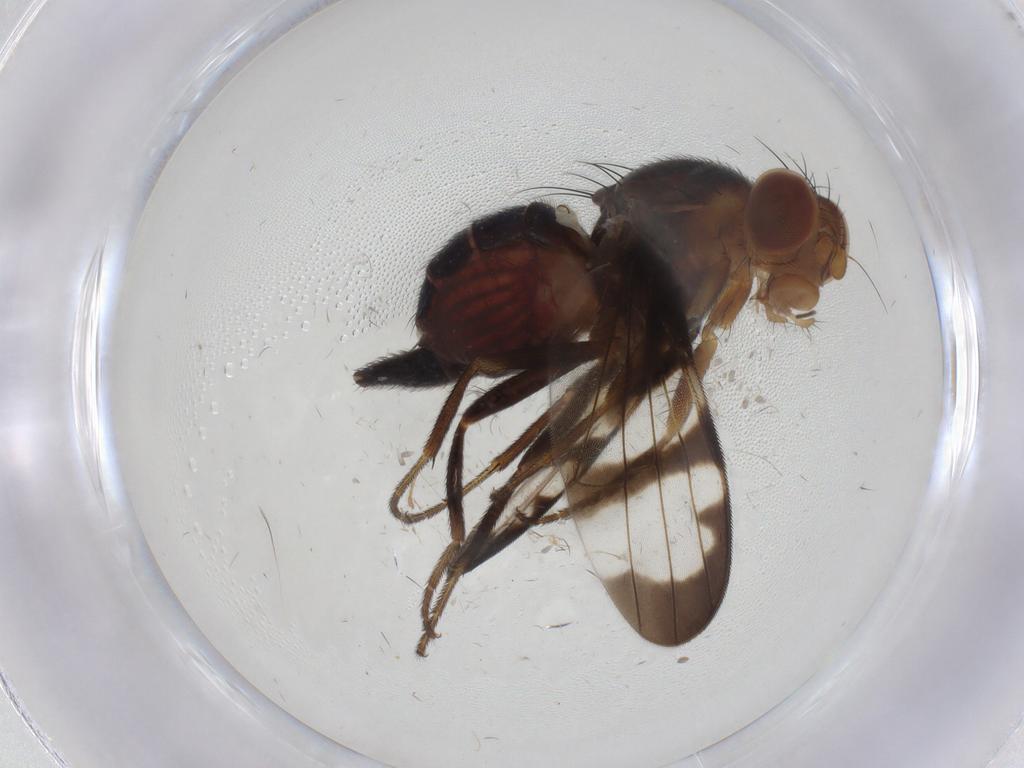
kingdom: Animalia
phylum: Arthropoda
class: Insecta
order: Diptera
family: Ulidiidae
